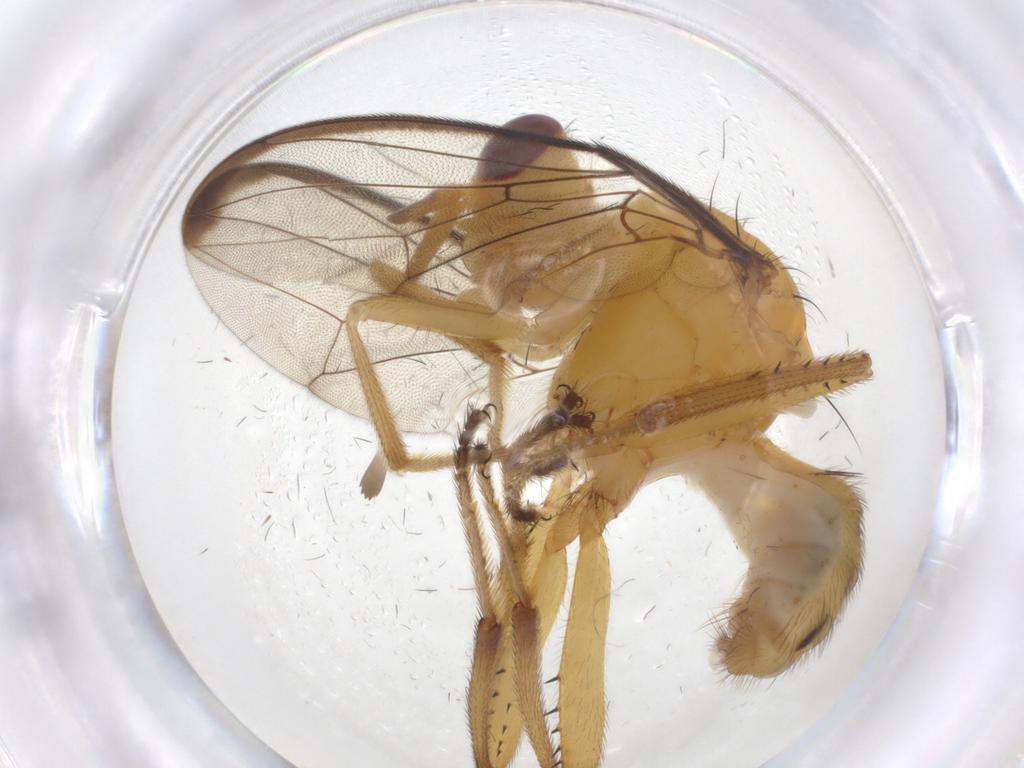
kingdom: Animalia
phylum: Arthropoda
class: Insecta
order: Diptera
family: Richardiidae
